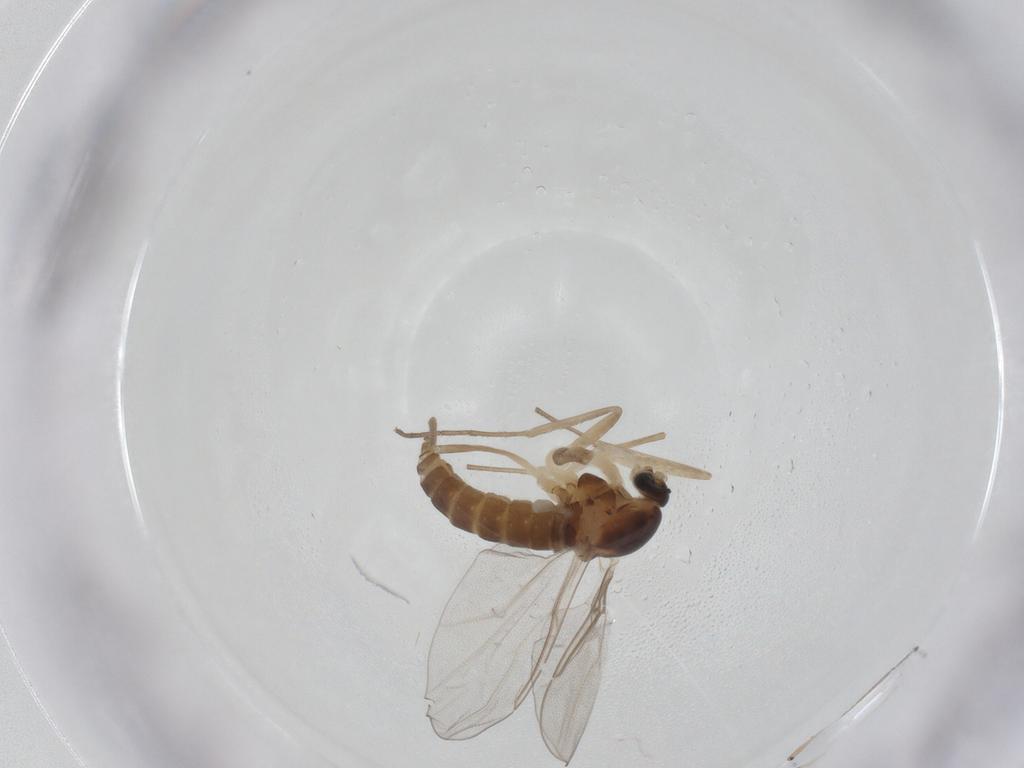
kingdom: Animalia
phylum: Arthropoda
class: Insecta
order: Diptera
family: Cecidomyiidae
